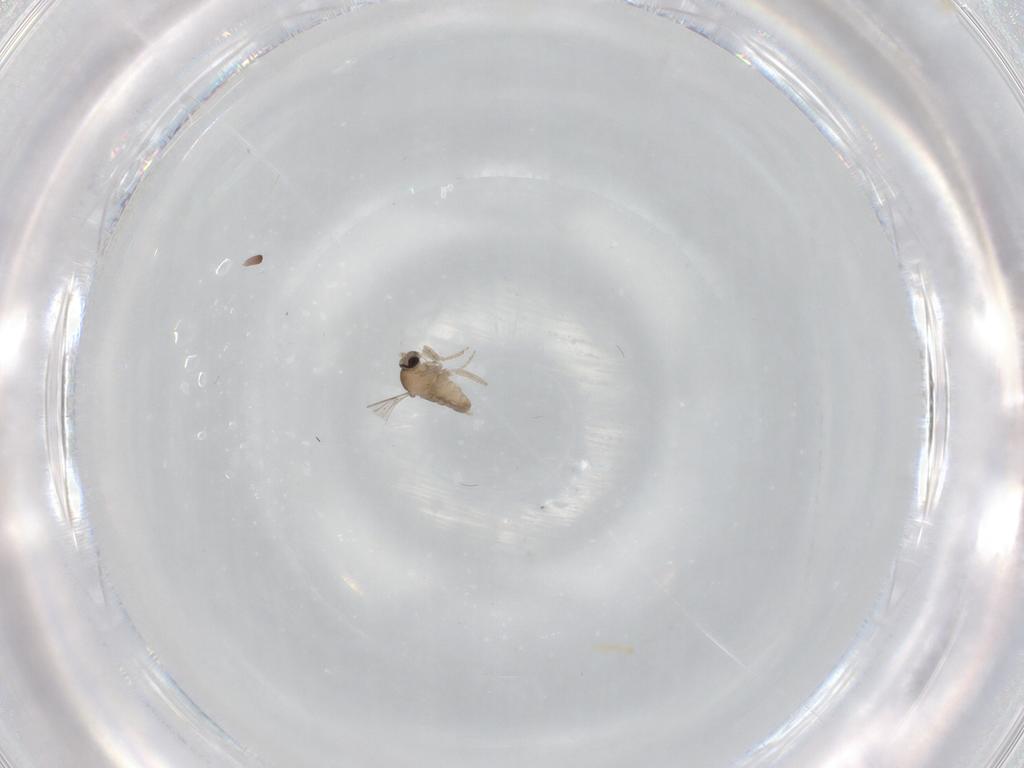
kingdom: Animalia
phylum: Arthropoda
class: Insecta
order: Diptera
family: Cecidomyiidae
